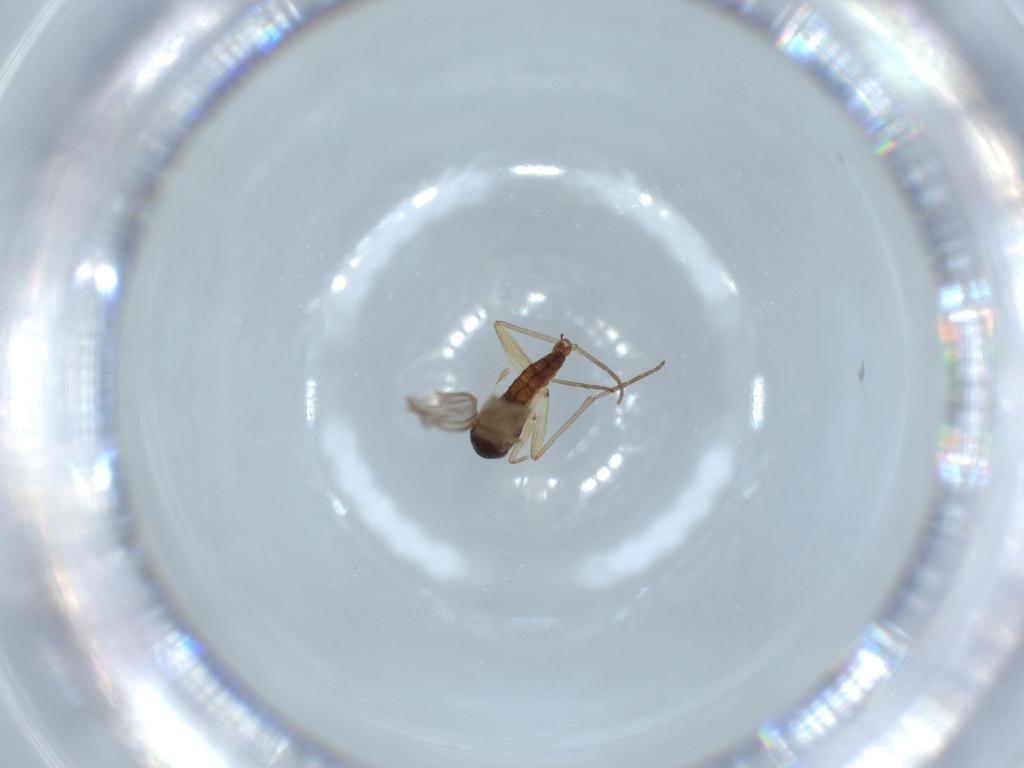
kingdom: Animalia
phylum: Arthropoda
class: Insecta
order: Diptera
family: Sciaridae
